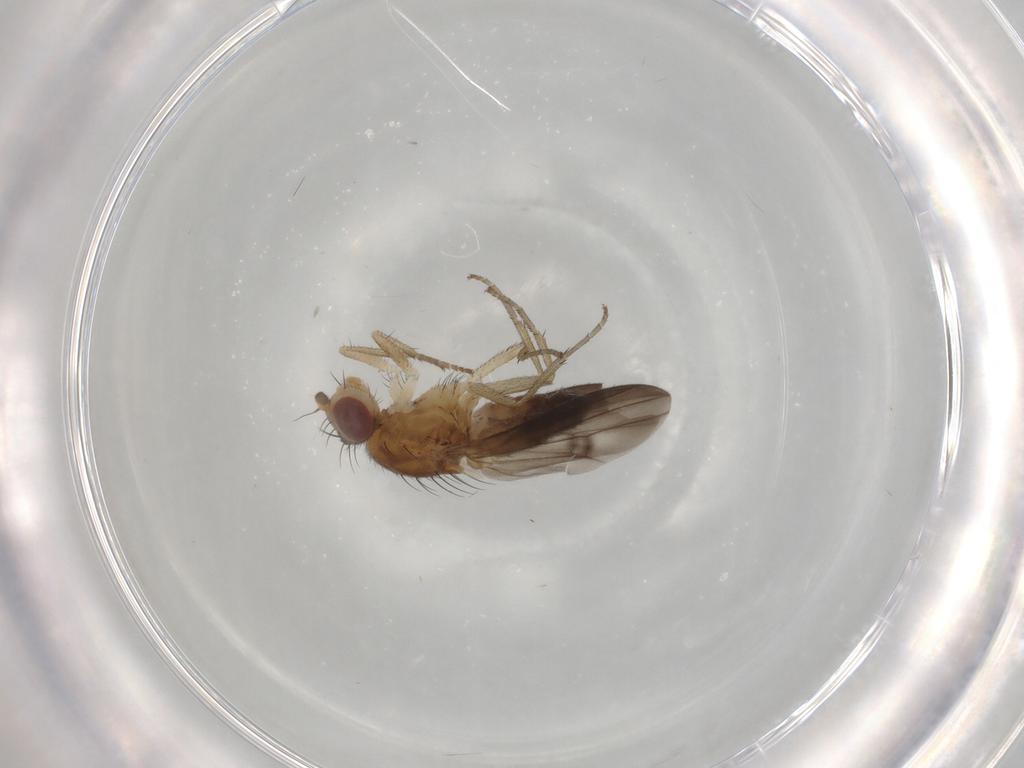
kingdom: Animalia
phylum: Arthropoda
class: Insecta
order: Diptera
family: Heleomyzidae
